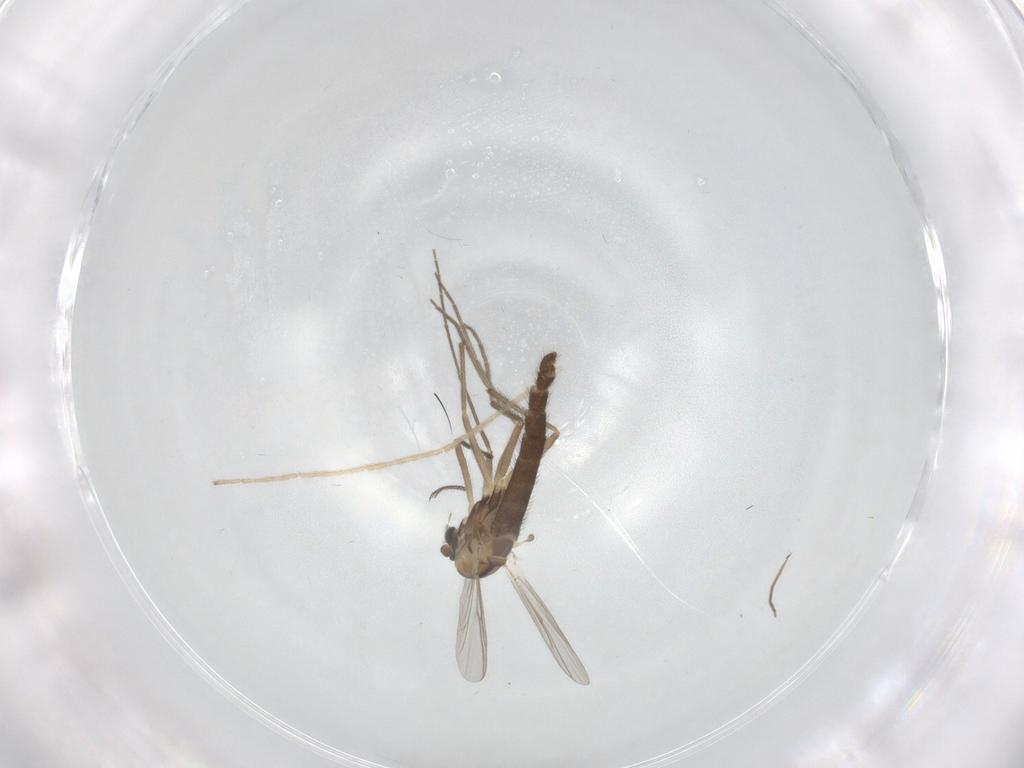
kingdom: Animalia
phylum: Arthropoda
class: Insecta
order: Diptera
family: Chironomidae
